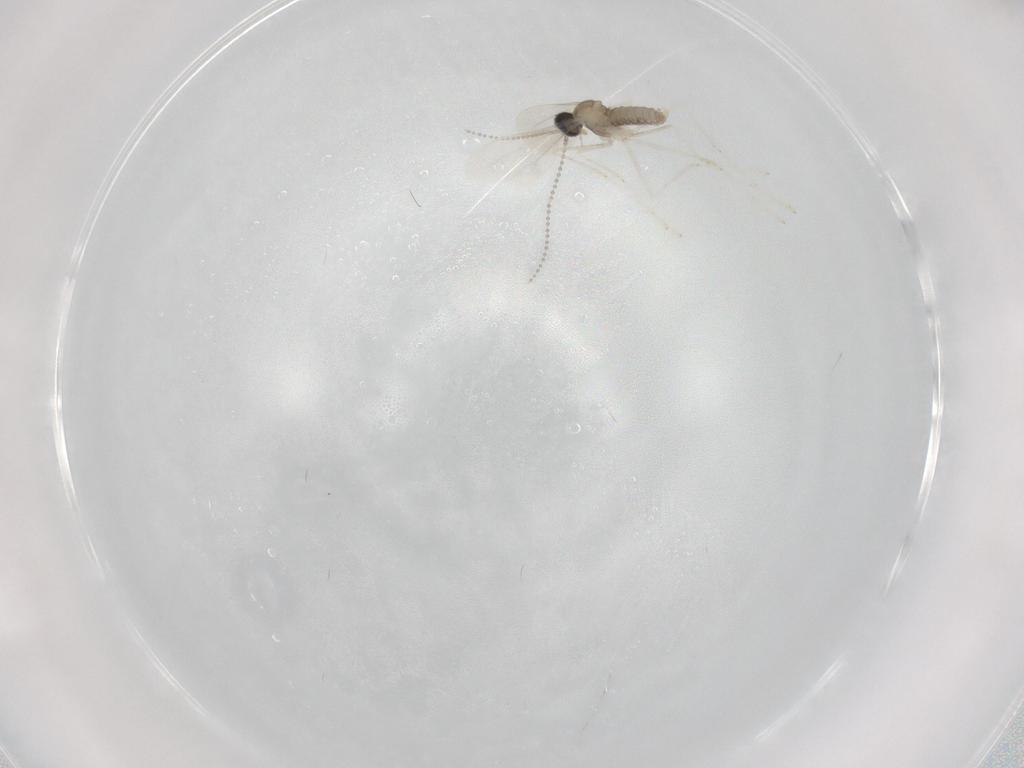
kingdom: Animalia
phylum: Arthropoda
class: Insecta
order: Diptera
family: Cecidomyiidae
